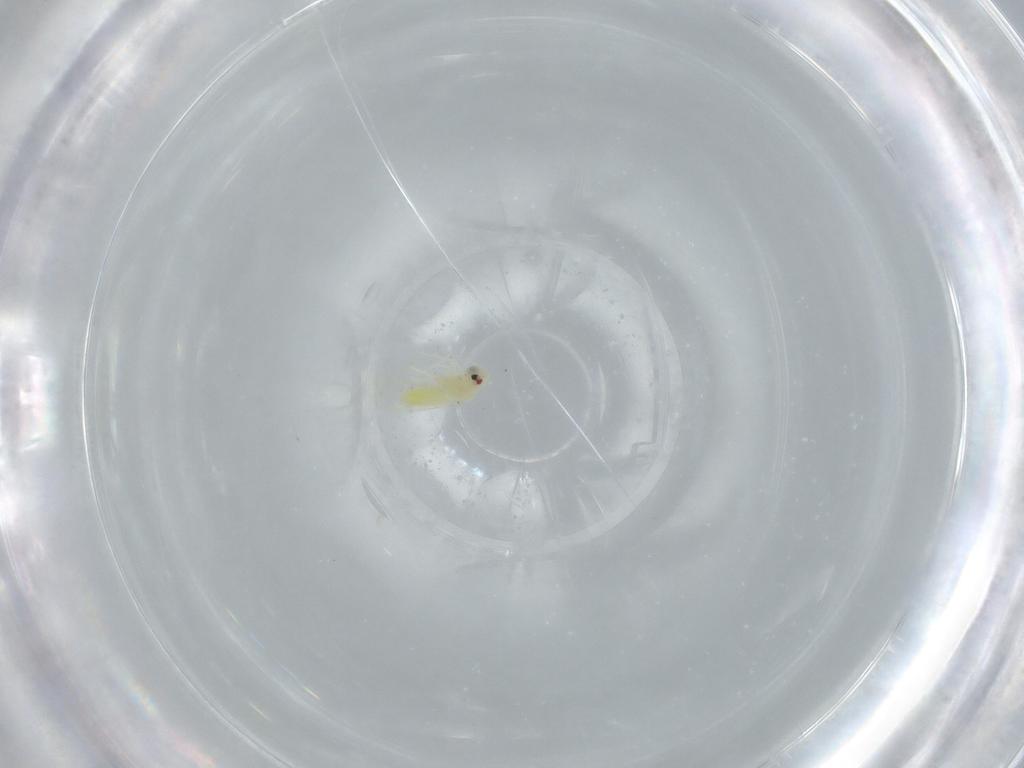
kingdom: Animalia
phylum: Arthropoda
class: Insecta
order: Hemiptera
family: Aleyrodidae
